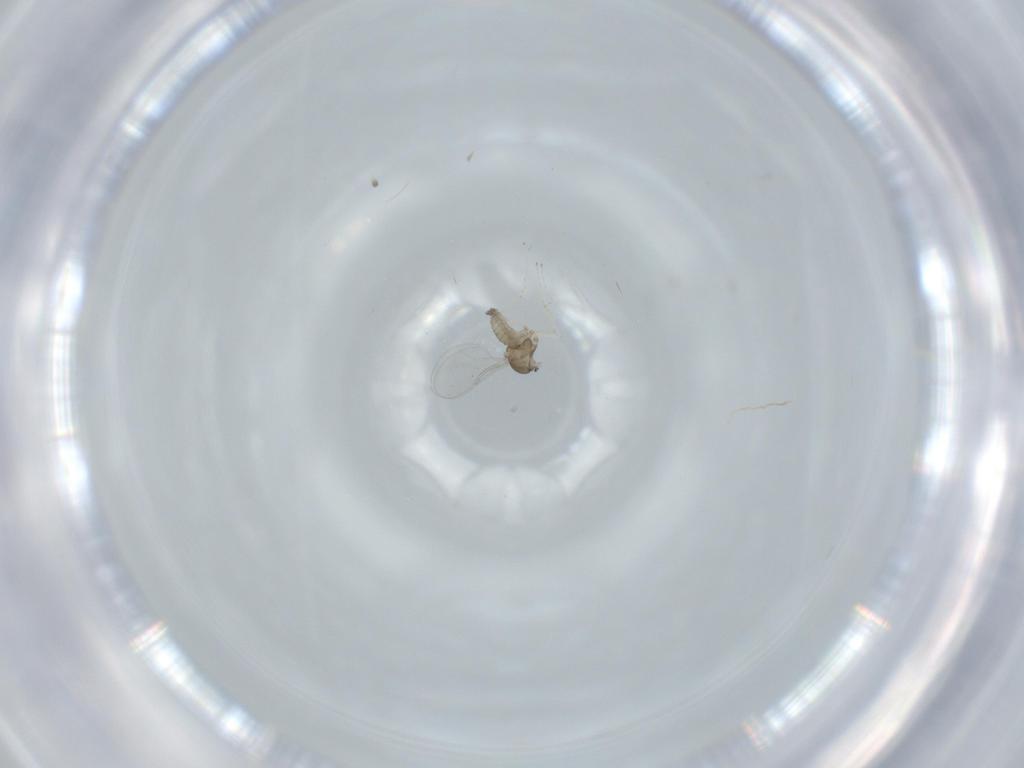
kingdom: Animalia
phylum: Arthropoda
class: Insecta
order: Diptera
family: Cecidomyiidae
